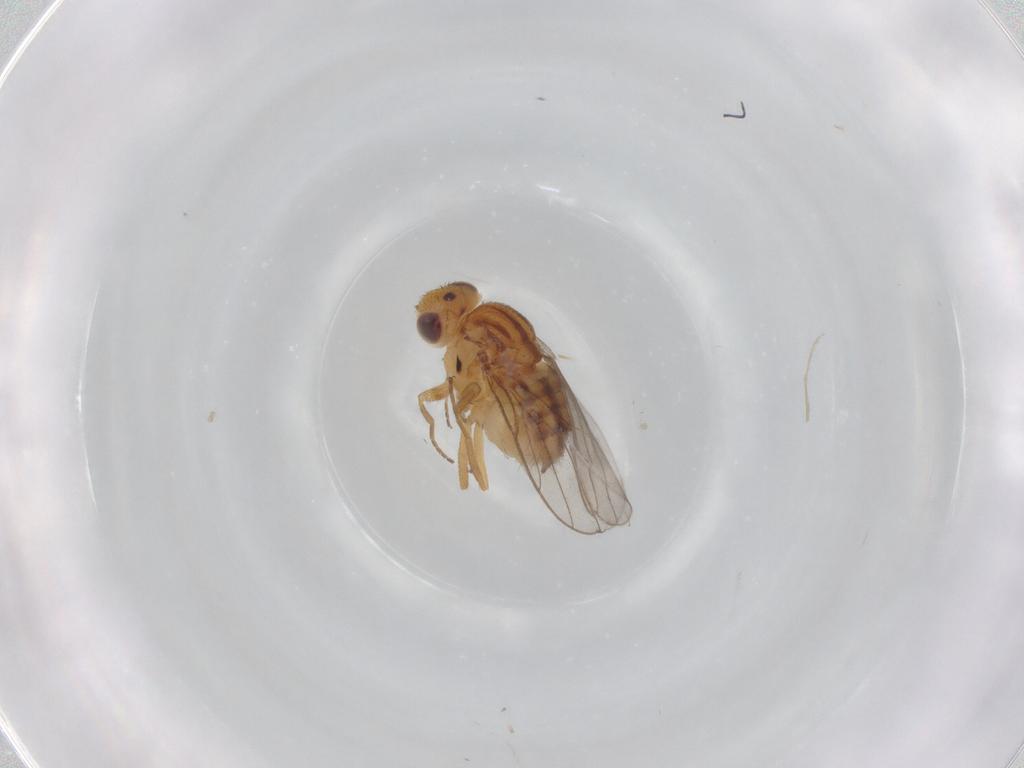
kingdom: Animalia
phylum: Arthropoda
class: Insecta
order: Diptera
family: Chloropidae
